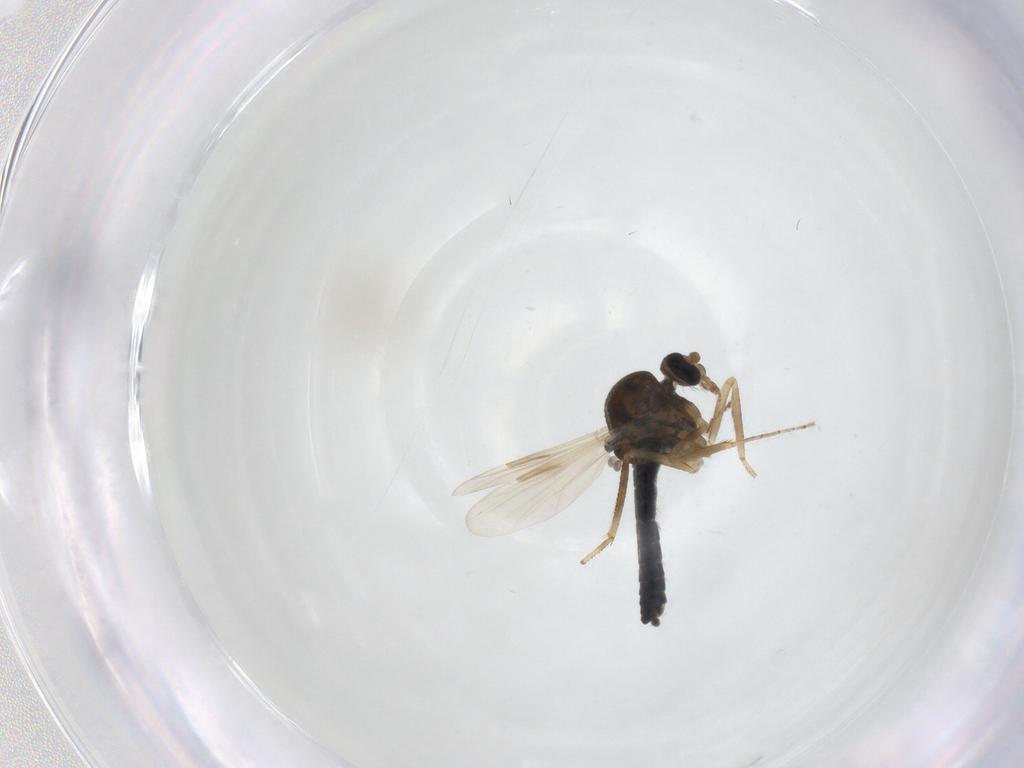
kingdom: Animalia
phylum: Arthropoda
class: Insecta
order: Diptera
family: Ceratopogonidae
